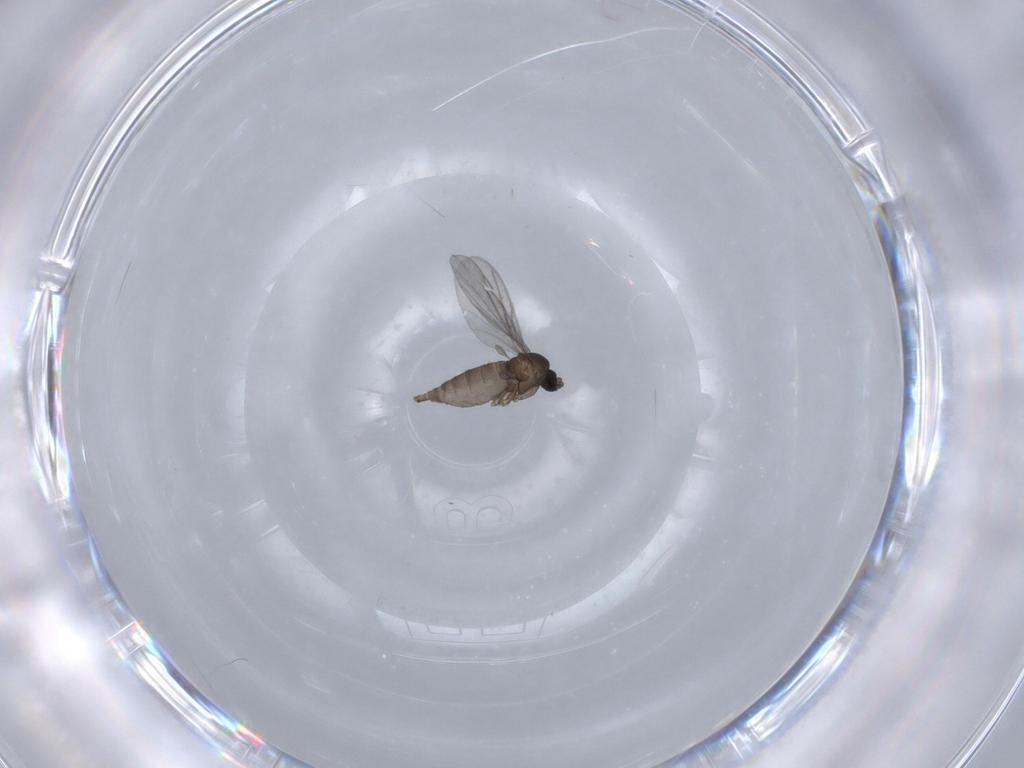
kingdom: Animalia
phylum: Arthropoda
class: Insecta
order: Diptera
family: Sciaridae
